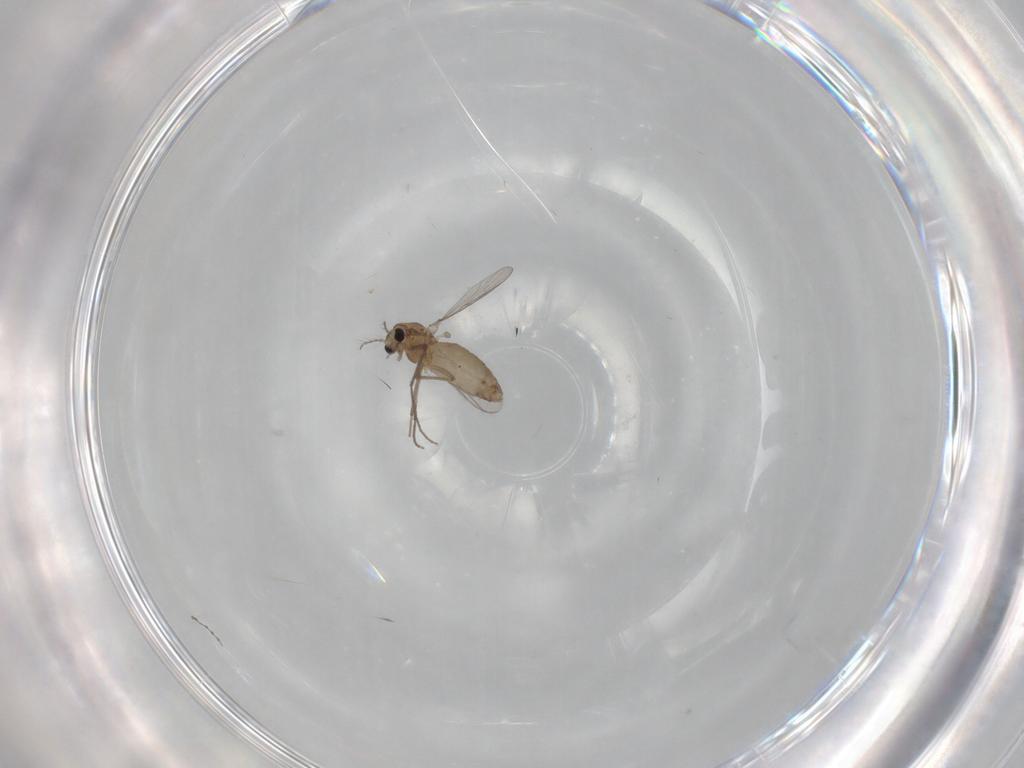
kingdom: Animalia
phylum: Arthropoda
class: Insecta
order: Diptera
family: Chironomidae
